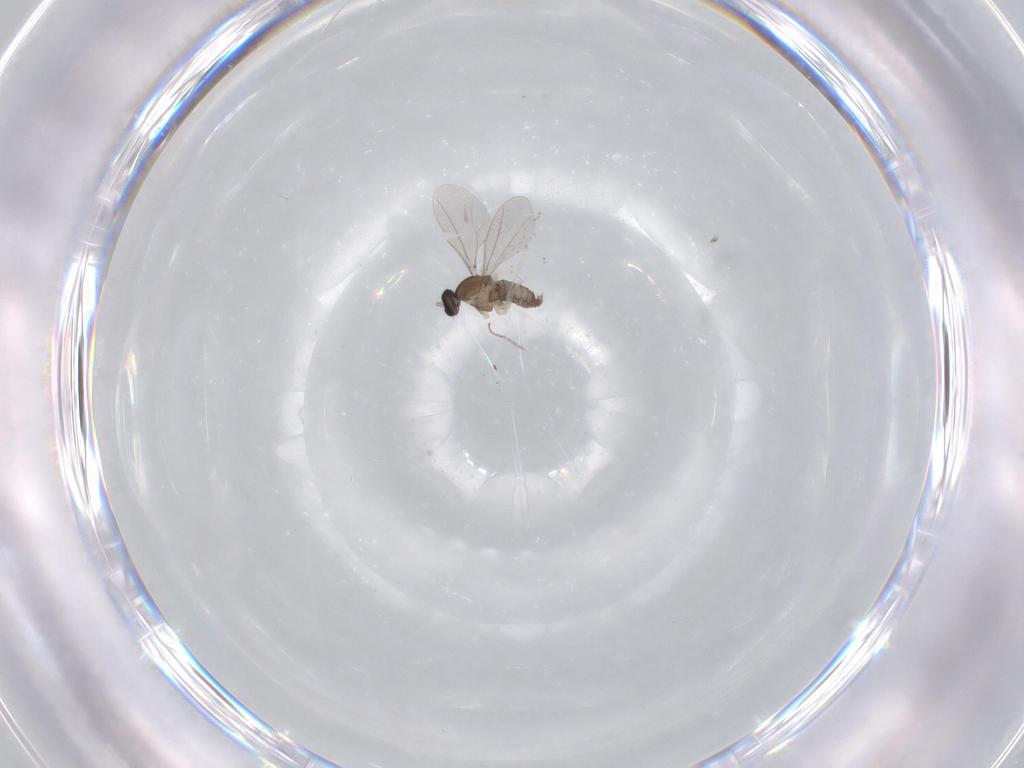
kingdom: Animalia
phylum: Arthropoda
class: Insecta
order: Diptera
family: Cecidomyiidae
